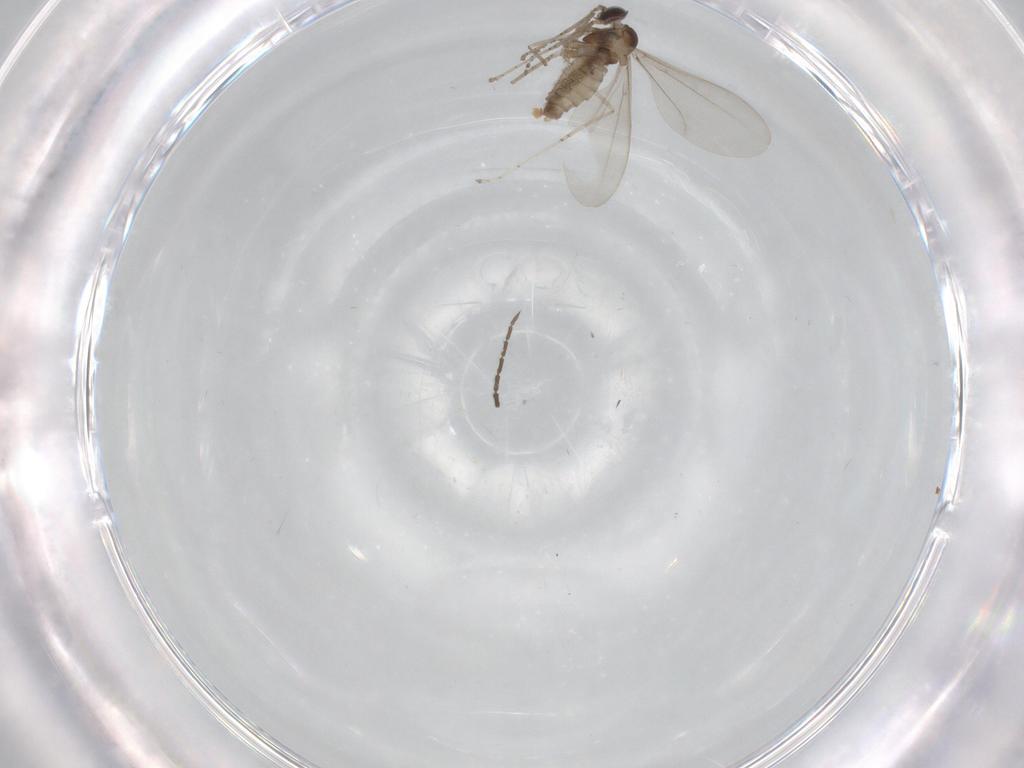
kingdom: Animalia
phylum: Arthropoda
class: Insecta
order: Diptera
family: Sciaridae
